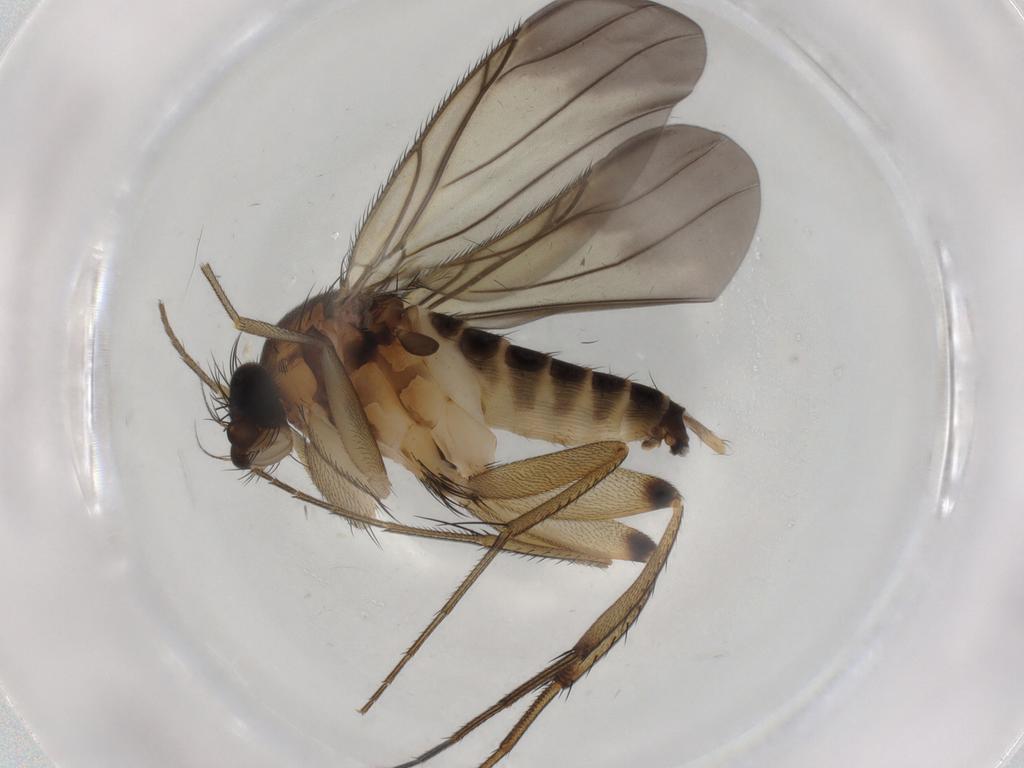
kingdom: Animalia
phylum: Arthropoda
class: Insecta
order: Diptera
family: Phoridae
